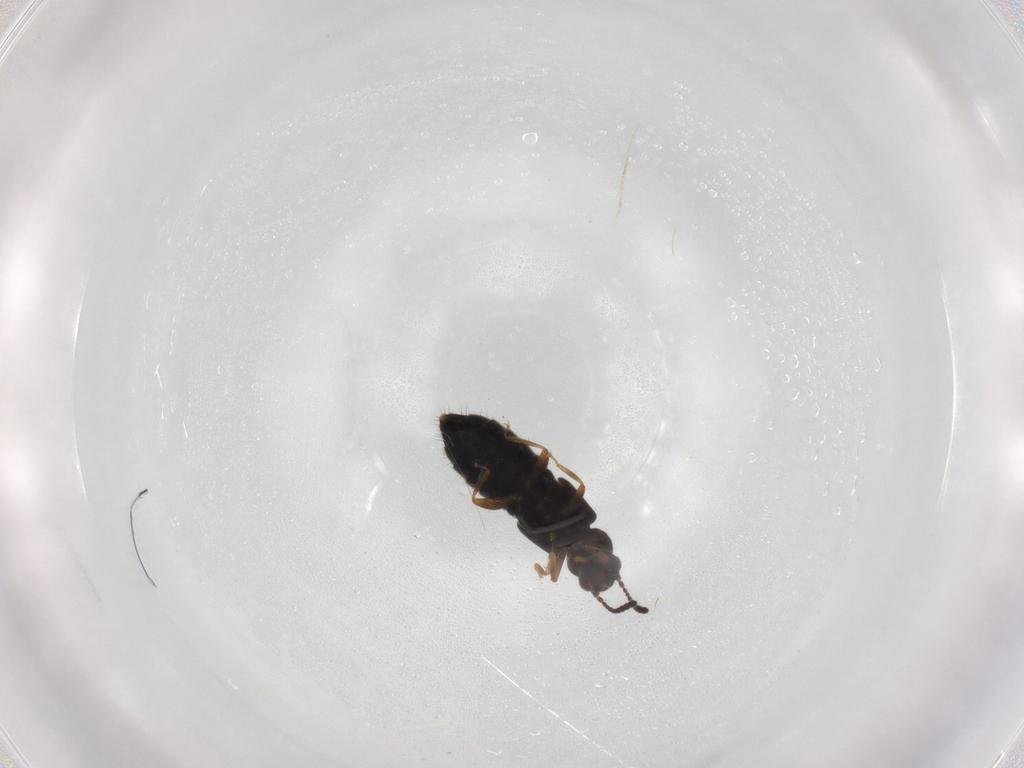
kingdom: Animalia
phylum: Arthropoda
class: Insecta
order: Coleoptera
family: Staphylinidae
